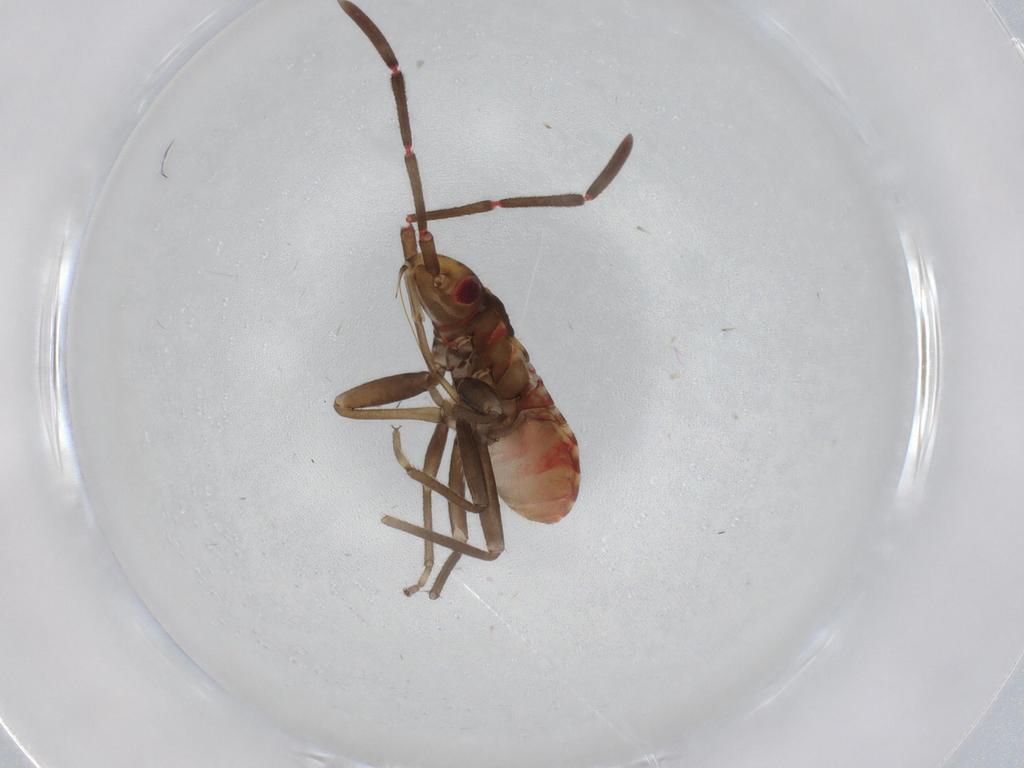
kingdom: Animalia
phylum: Arthropoda
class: Insecta
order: Hemiptera
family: Rhyparochromidae
